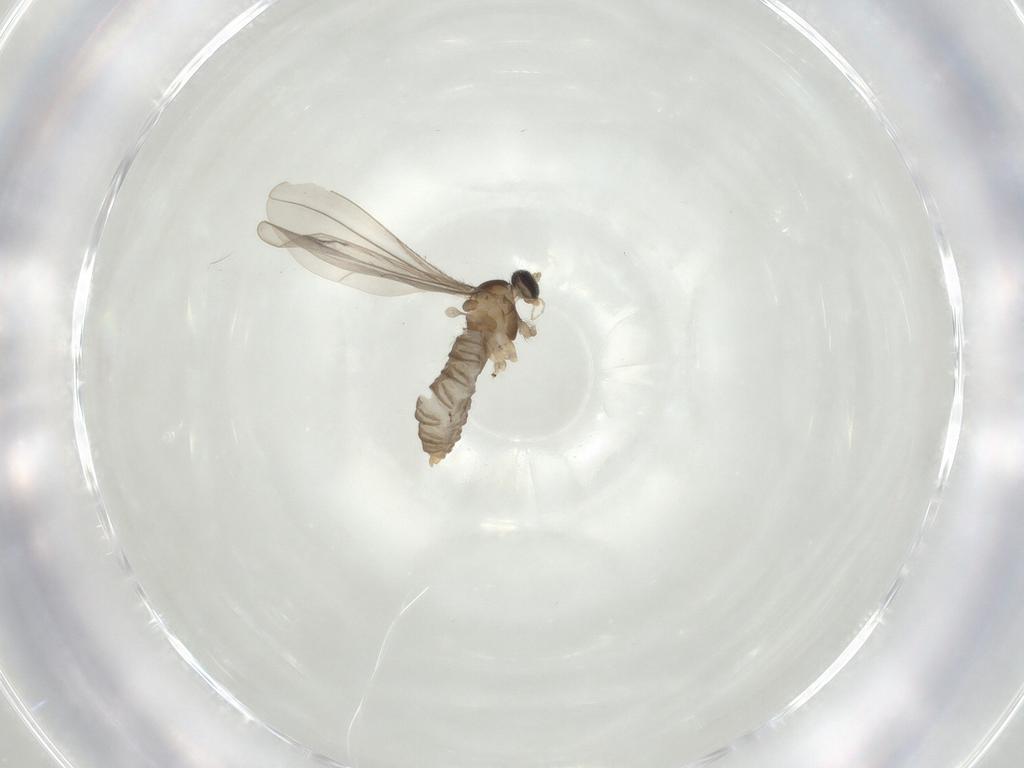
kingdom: Animalia
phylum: Arthropoda
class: Insecta
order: Diptera
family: Cecidomyiidae
